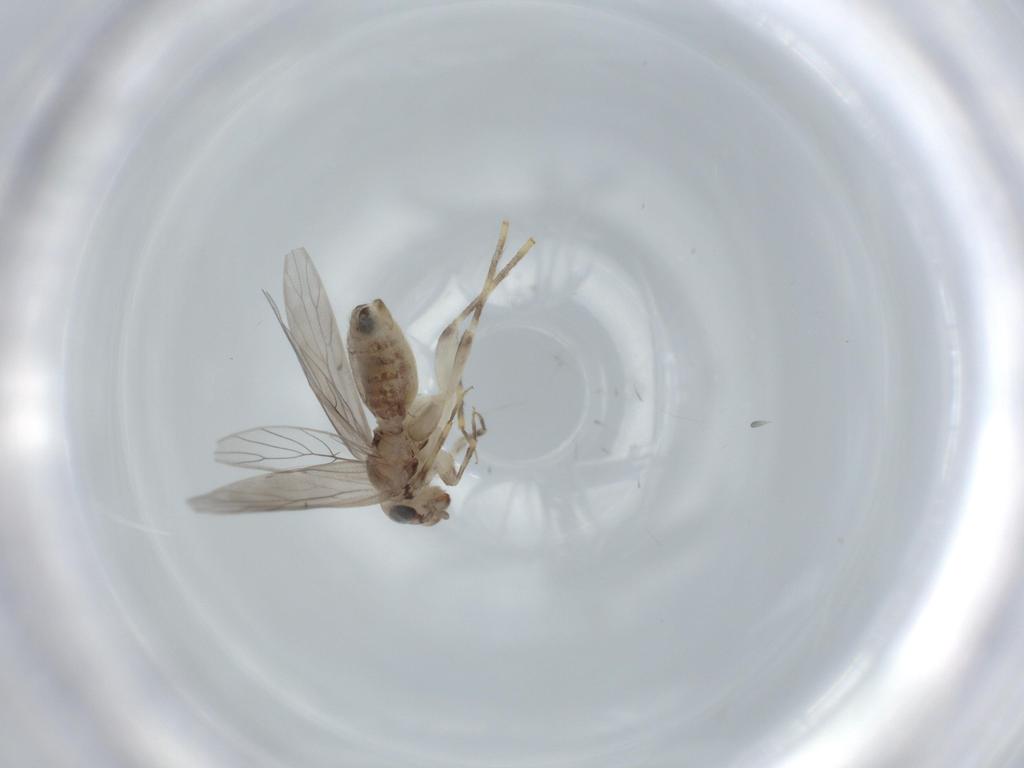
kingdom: Animalia
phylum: Arthropoda
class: Insecta
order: Psocodea
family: Lepidopsocidae
